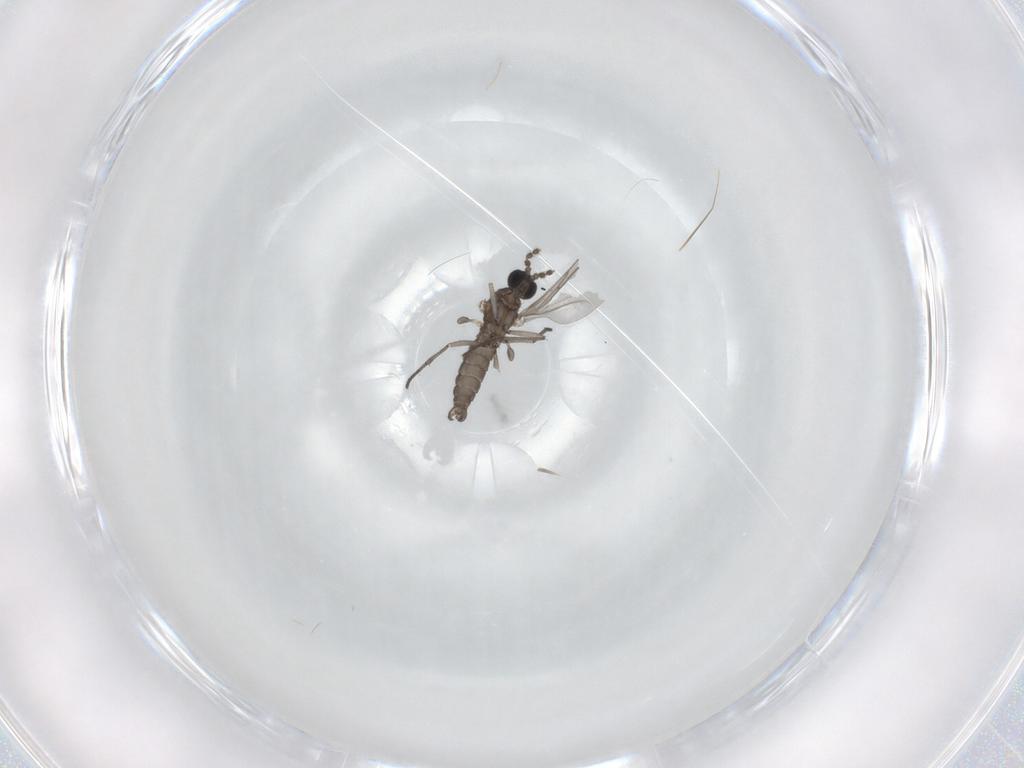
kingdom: Animalia
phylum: Arthropoda
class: Insecta
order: Diptera
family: Sciaridae
